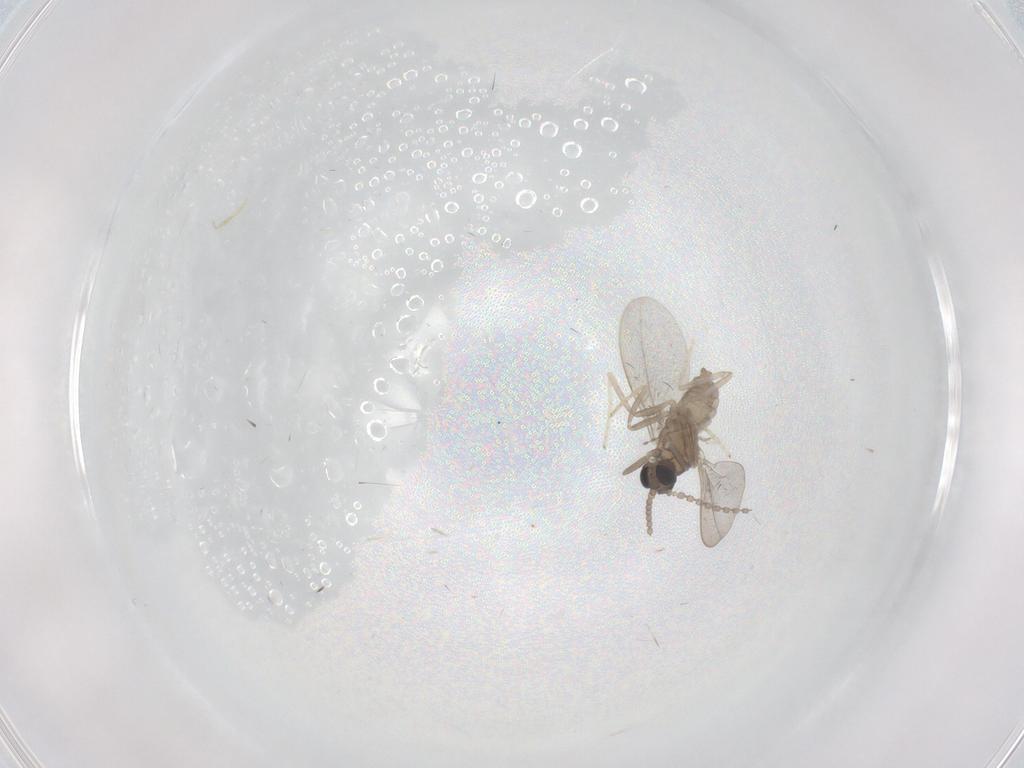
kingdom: Animalia
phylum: Arthropoda
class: Insecta
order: Diptera
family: Cecidomyiidae
